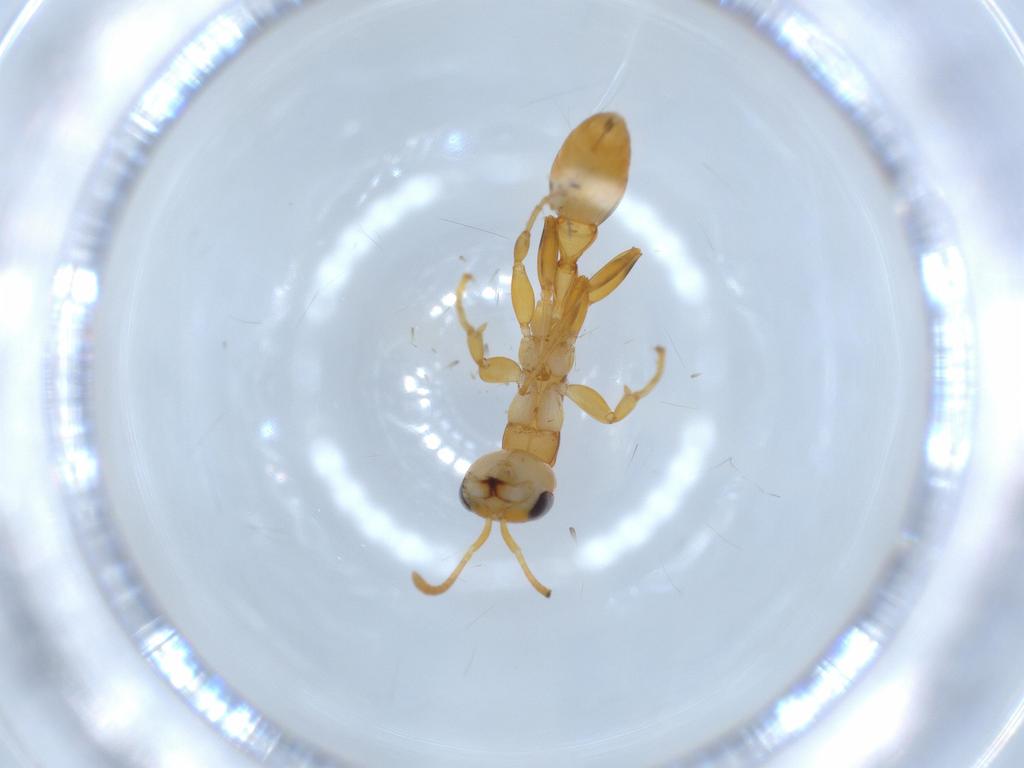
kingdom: Animalia
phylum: Arthropoda
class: Insecta
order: Hymenoptera
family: Formicidae
